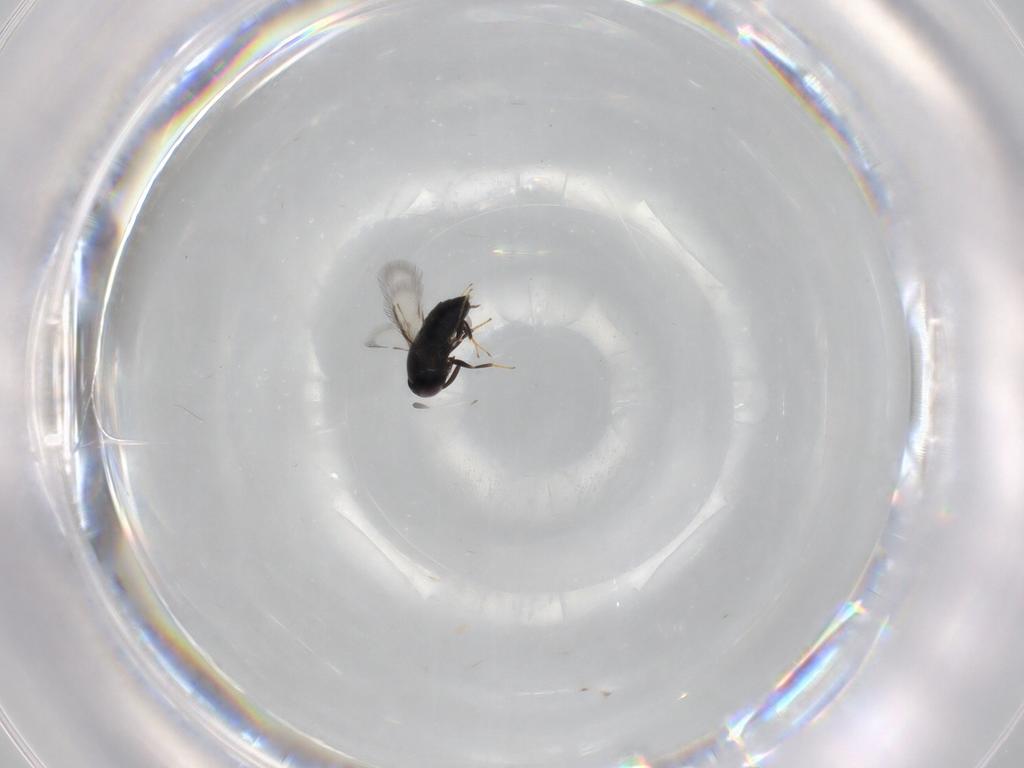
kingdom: Animalia
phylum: Arthropoda
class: Insecta
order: Hymenoptera
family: Signiphoridae
